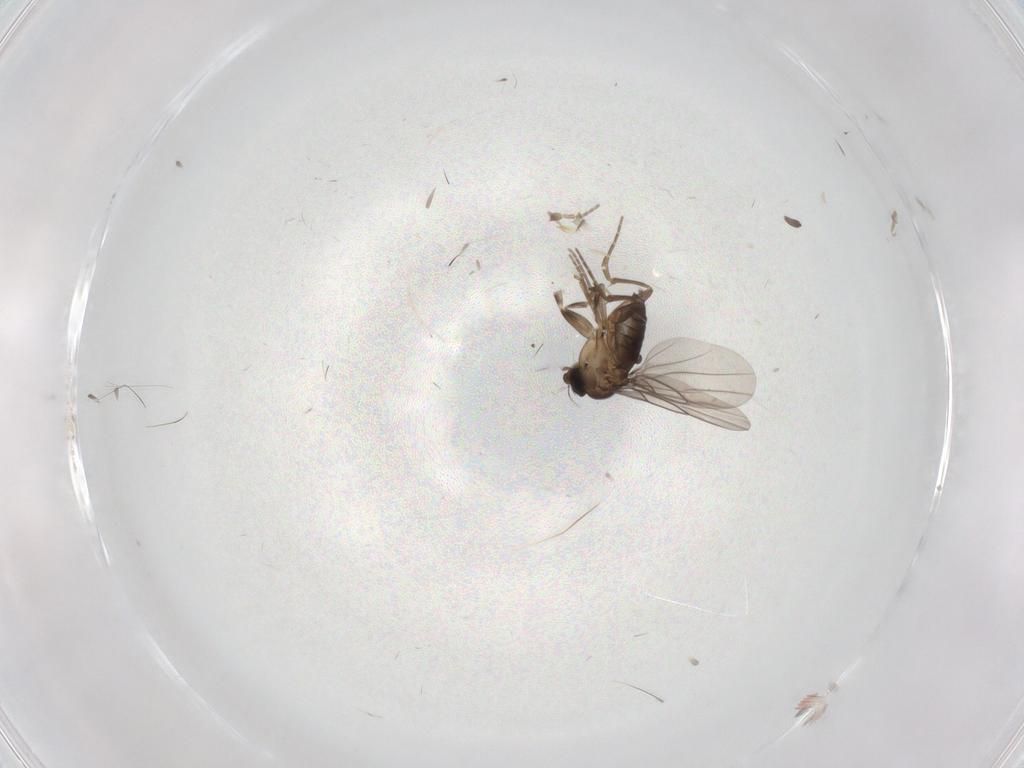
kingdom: Animalia
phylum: Arthropoda
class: Insecta
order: Diptera
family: Cecidomyiidae
